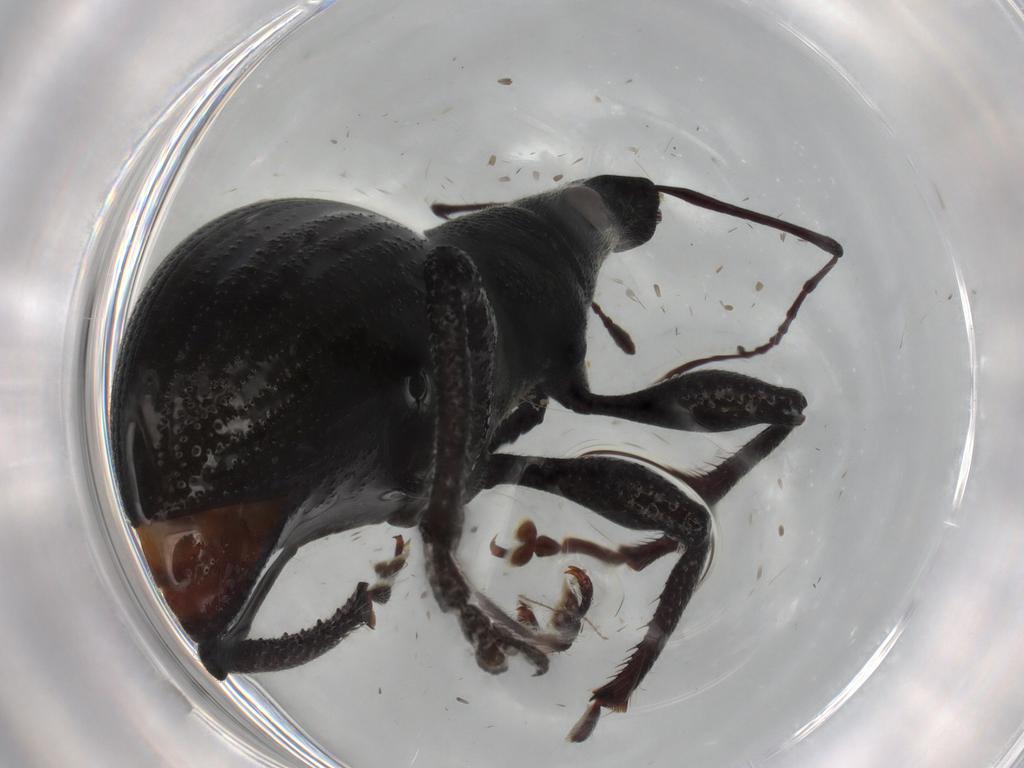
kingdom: Animalia
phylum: Arthropoda
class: Insecta
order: Coleoptera
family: Curculionidae
